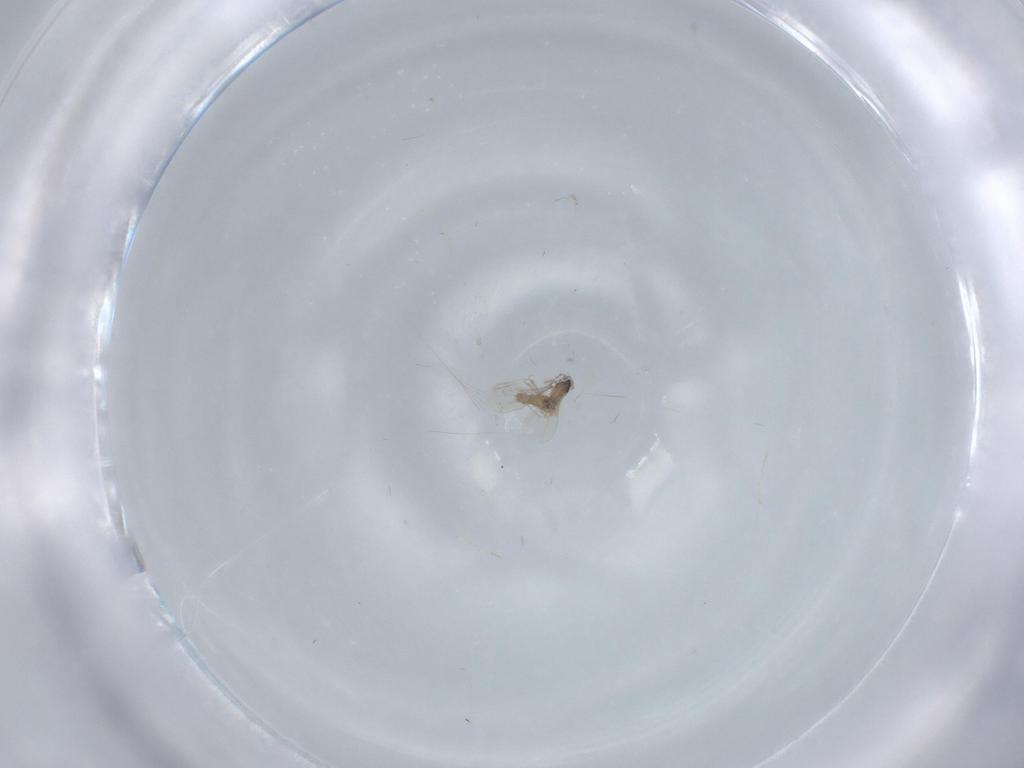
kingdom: Animalia
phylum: Arthropoda
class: Insecta
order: Diptera
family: Cecidomyiidae
